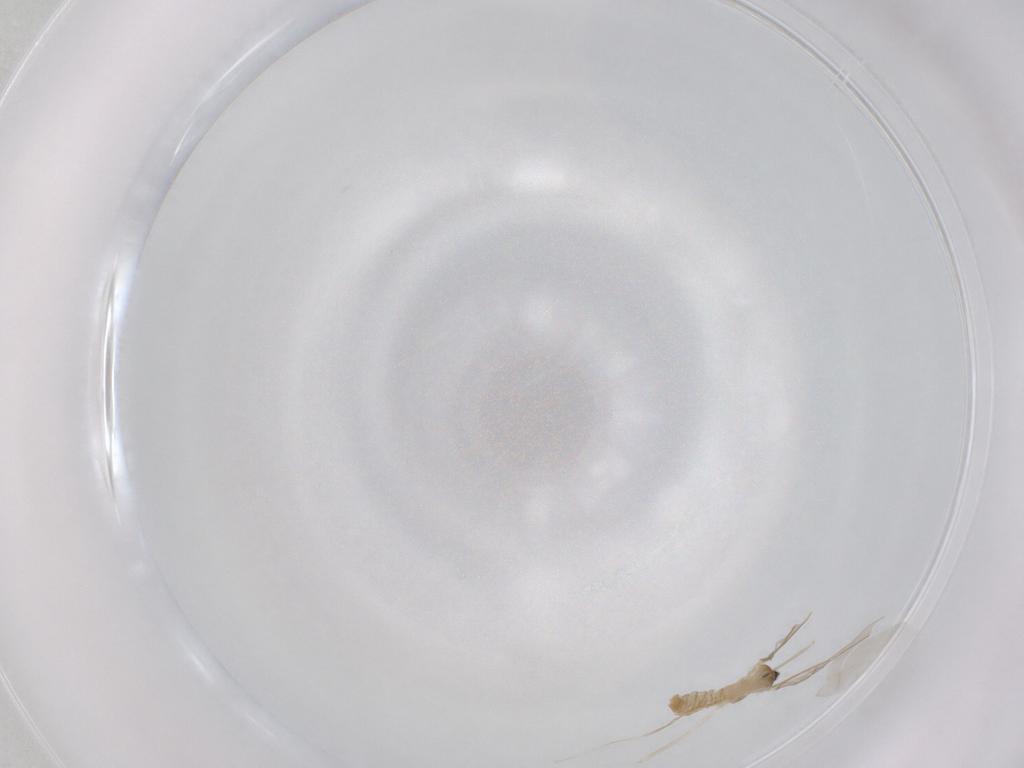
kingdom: Animalia
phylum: Arthropoda
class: Insecta
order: Diptera
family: Cecidomyiidae
